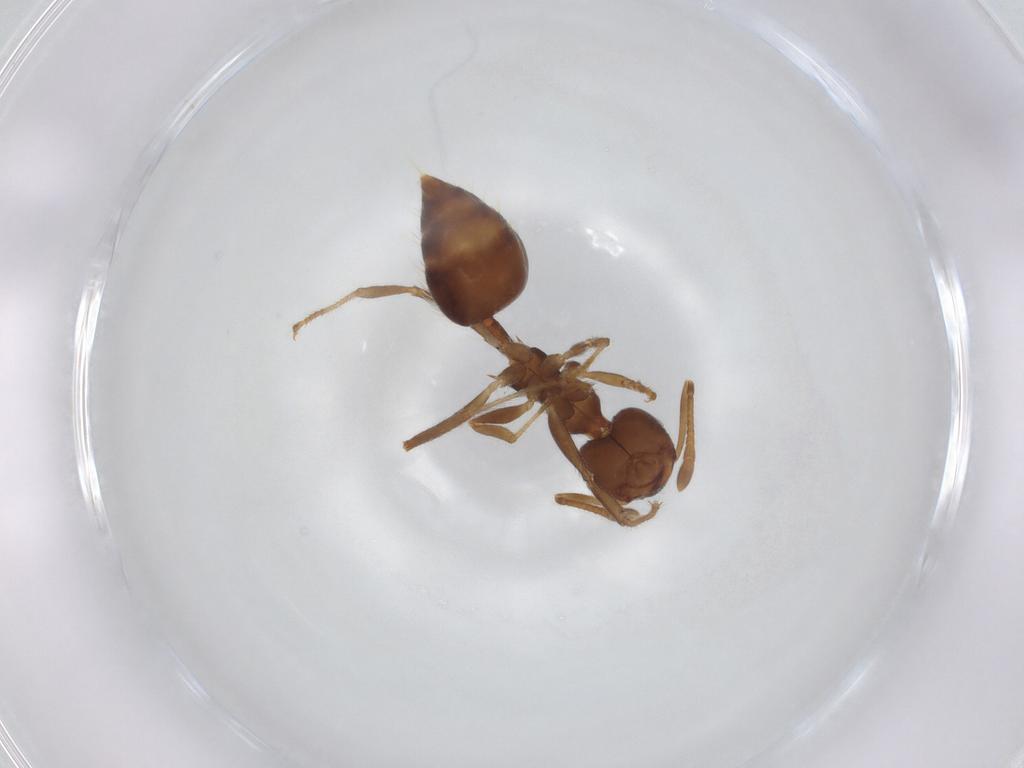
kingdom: Animalia
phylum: Arthropoda
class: Insecta
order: Hymenoptera
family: Formicidae
